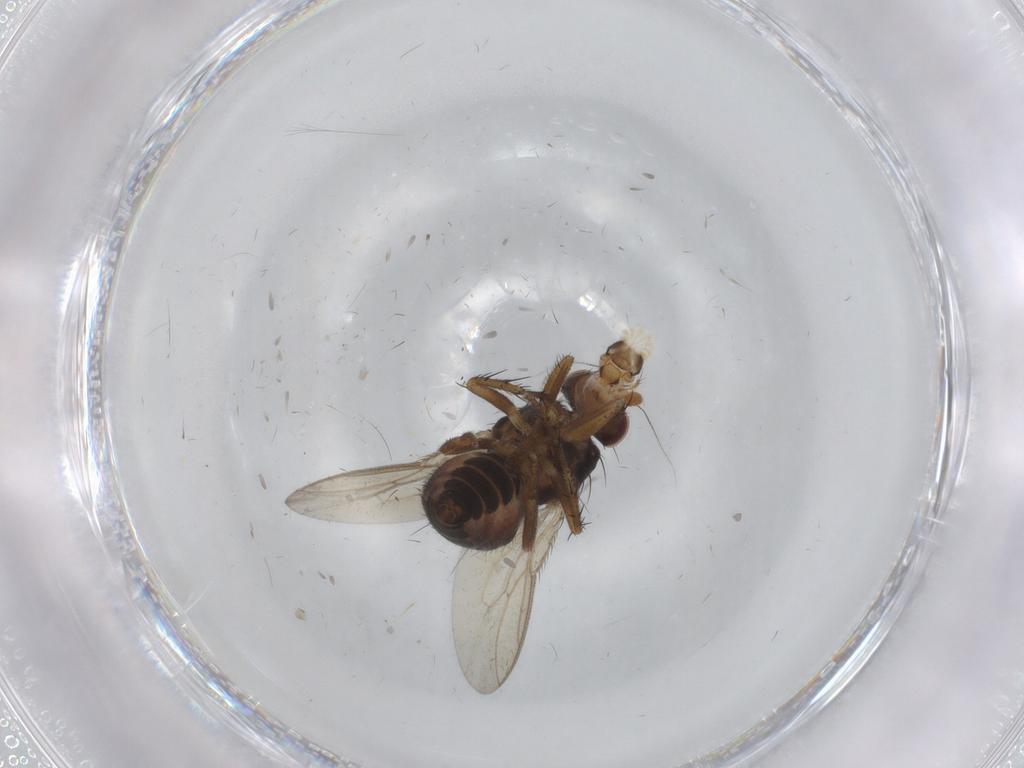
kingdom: Animalia
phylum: Arthropoda
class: Insecta
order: Diptera
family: Sphaeroceridae
